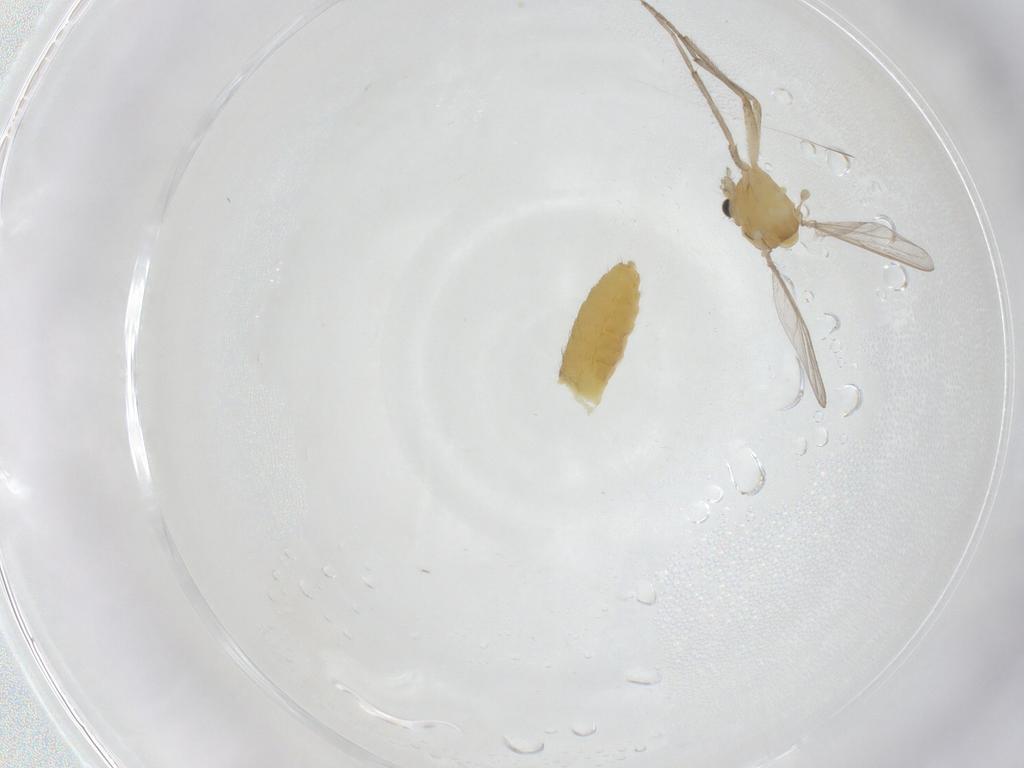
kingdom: Animalia
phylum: Arthropoda
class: Insecta
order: Diptera
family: Chironomidae
